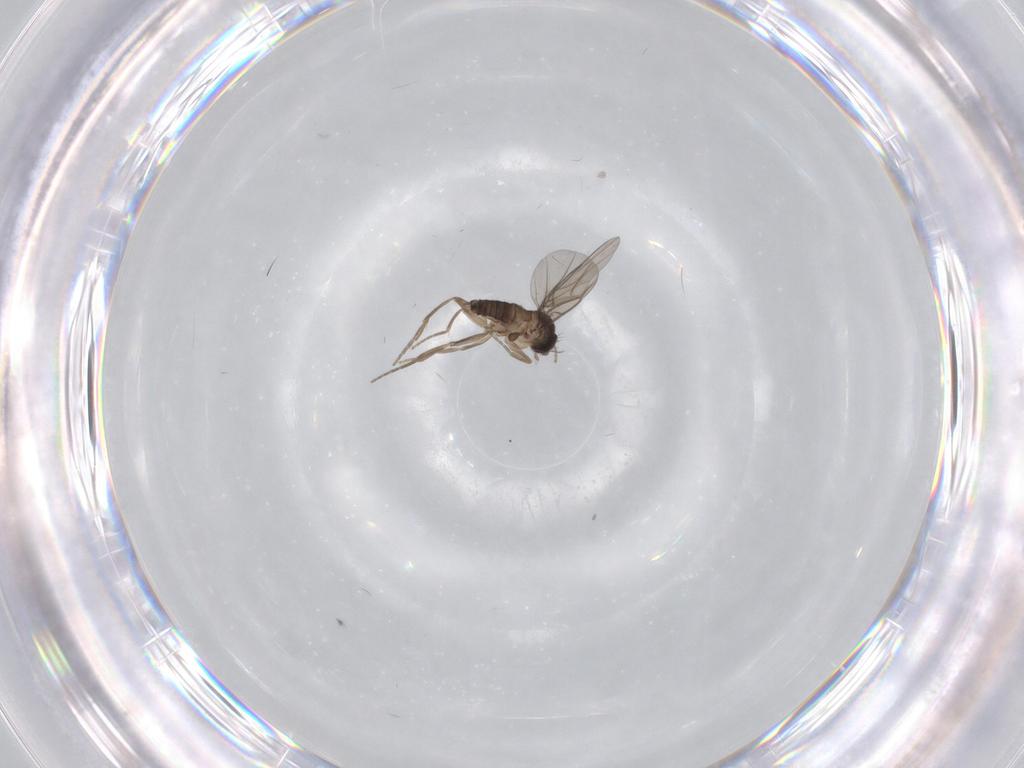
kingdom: Animalia
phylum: Arthropoda
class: Insecta
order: Diptera
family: Phoridae
